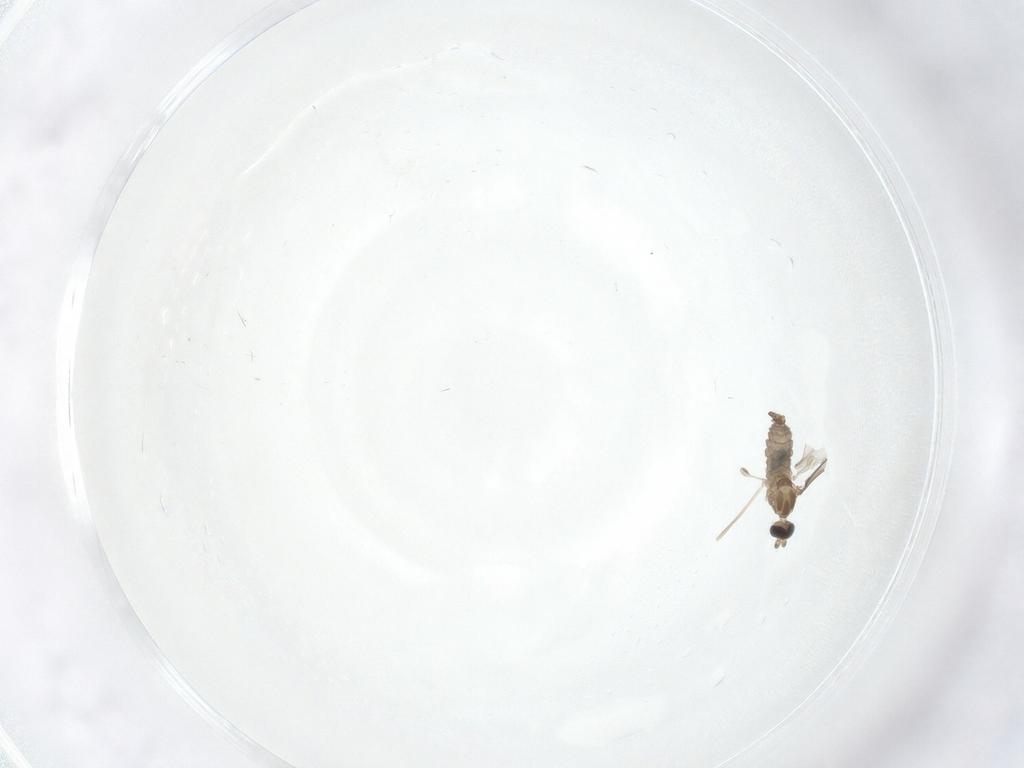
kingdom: Animalia
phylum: Arthropoda
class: Insecta
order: Diptera
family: Cecidomyiidae
